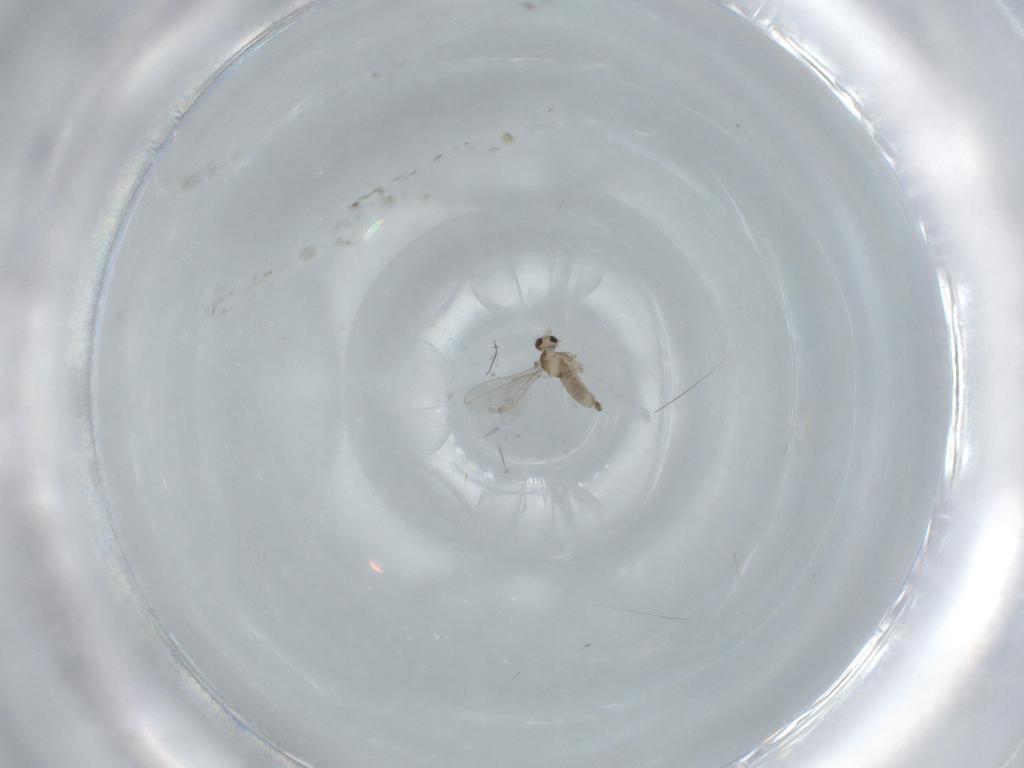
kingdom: Animalia
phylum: Arthropoda
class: Insecta
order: Diptera
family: Cecidomyiidae
